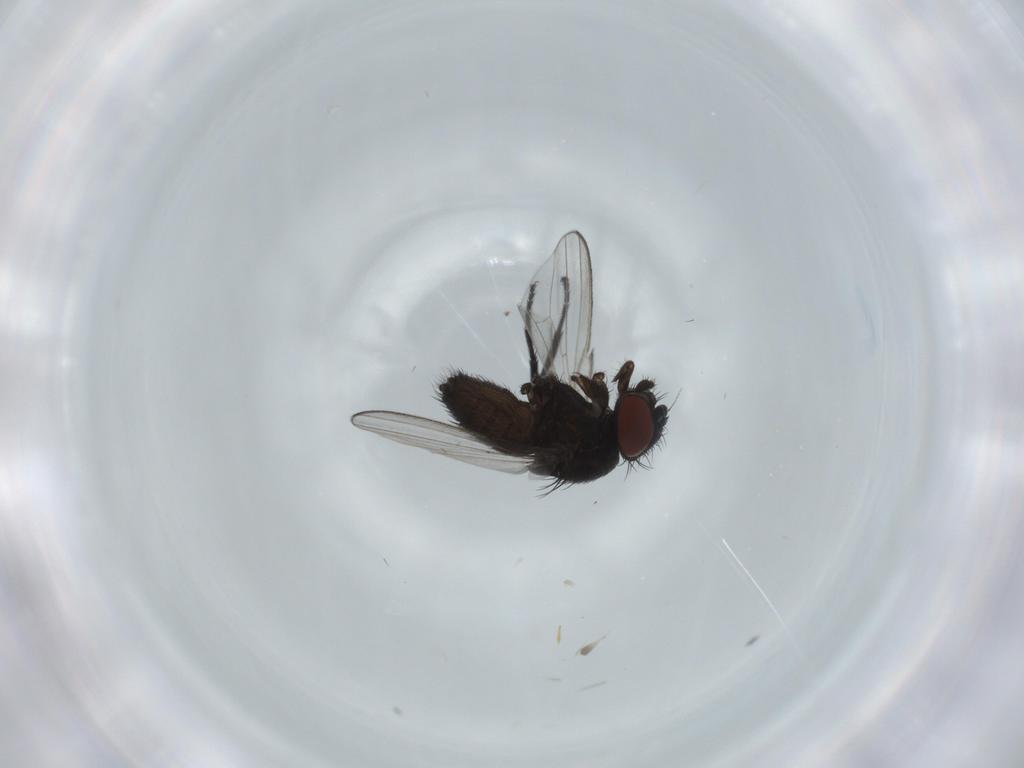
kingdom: Animalia
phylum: Arthropoda
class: Insecta
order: Diptera
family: Milichiidae
